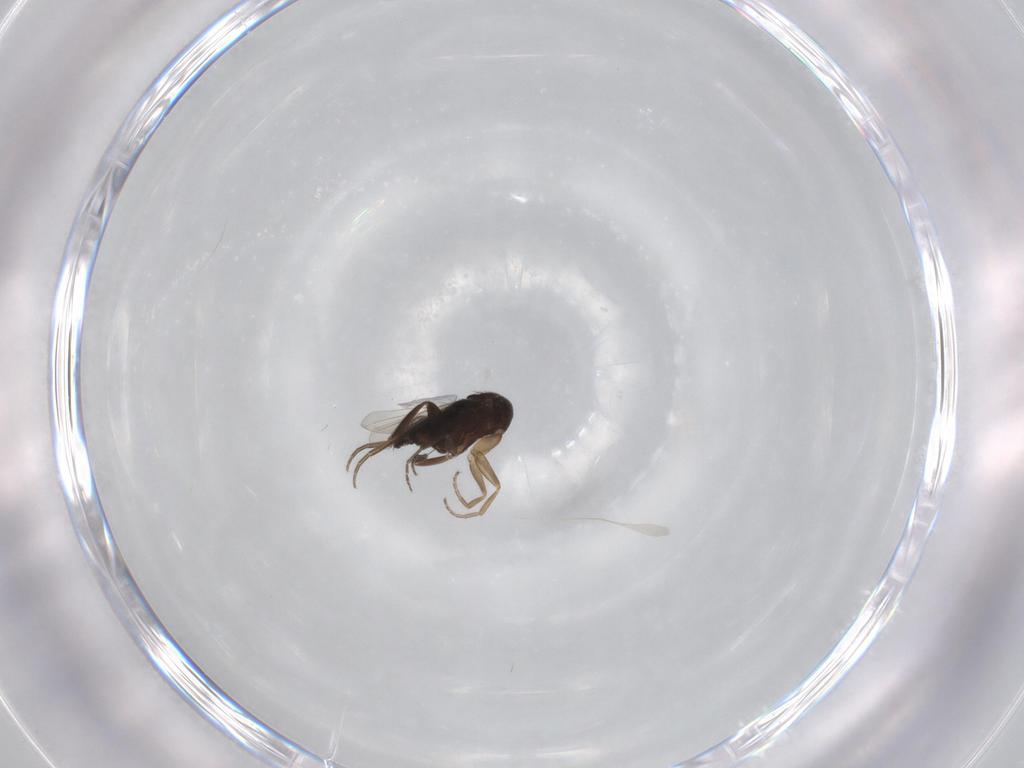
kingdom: Animalia
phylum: Arthropoda
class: Insecta
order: Diptera
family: Phoridae
